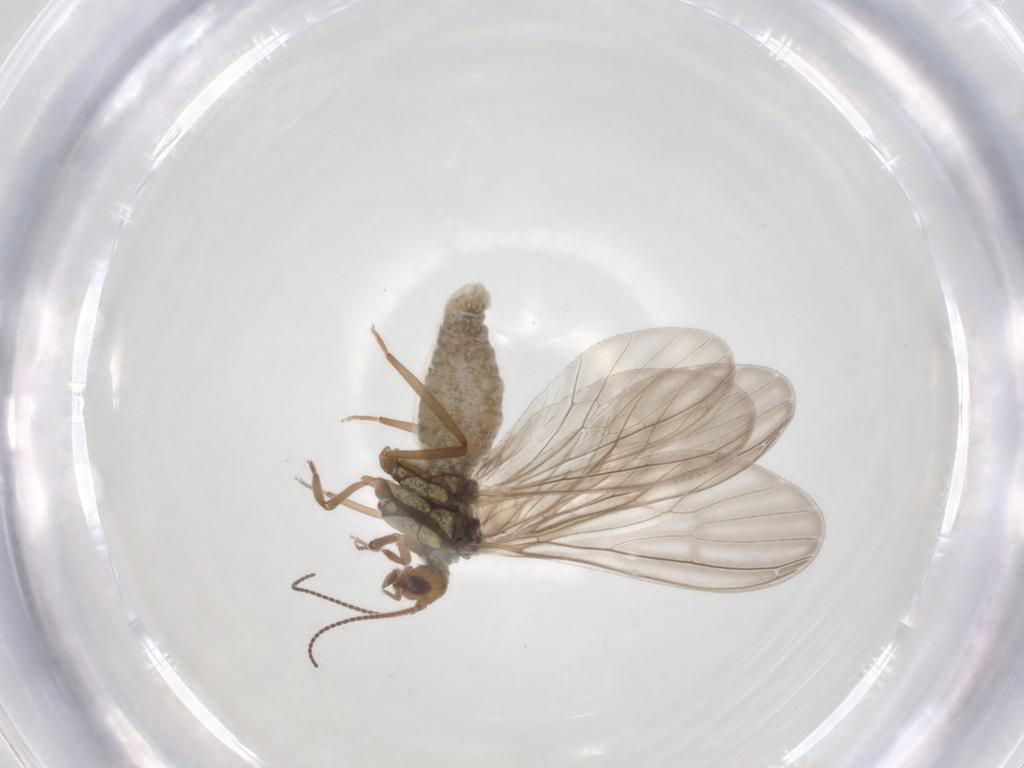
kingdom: Animalia
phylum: Arthropoda
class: Insecta
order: Neuroptera
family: Coniopterygidae
